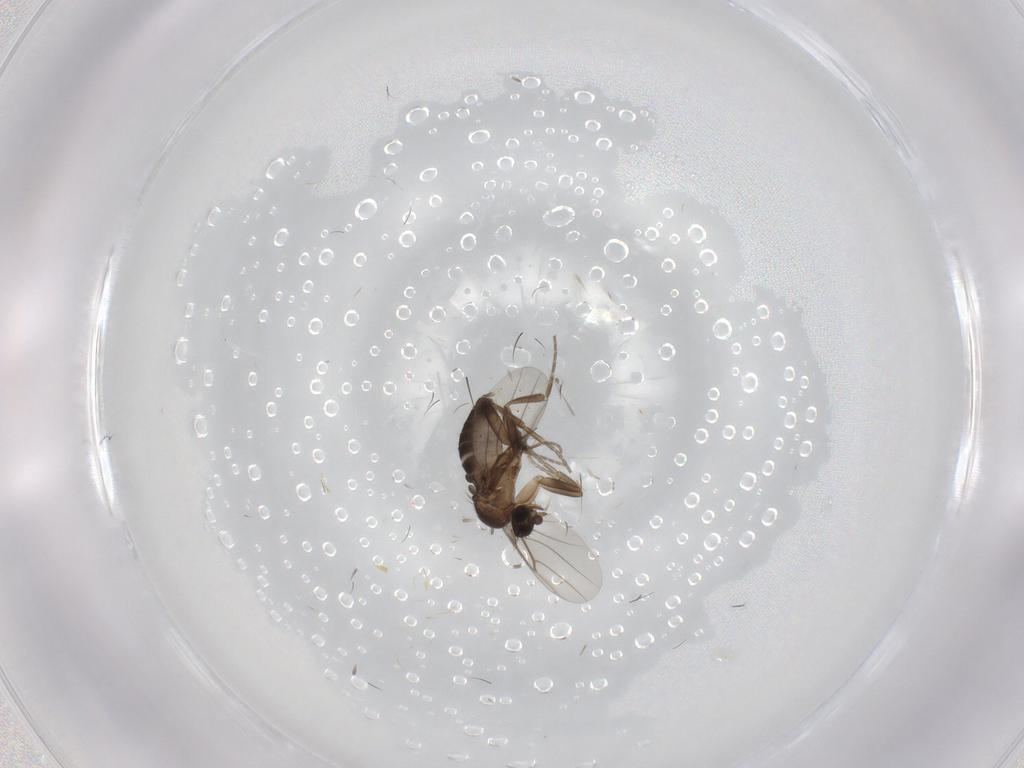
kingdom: Animalia
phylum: Arthropoda
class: Insecta
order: Diptera
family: Phoridae
